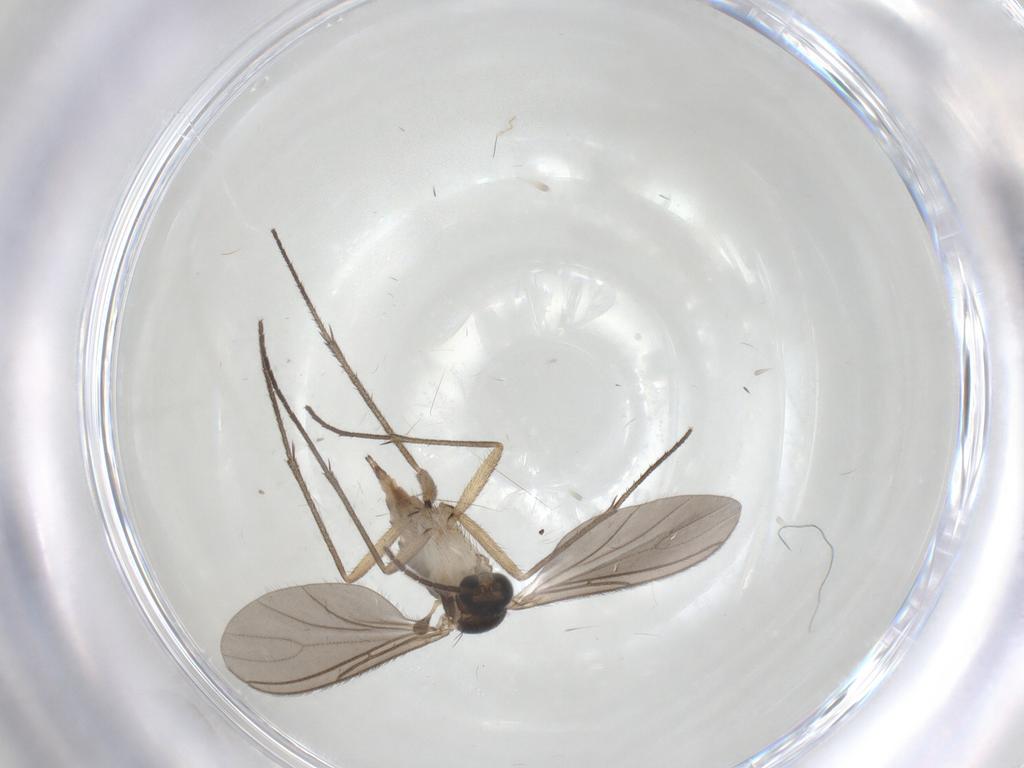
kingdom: Animalia
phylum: Arthropoda
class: Insecta
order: Diptera
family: Sciaridae
